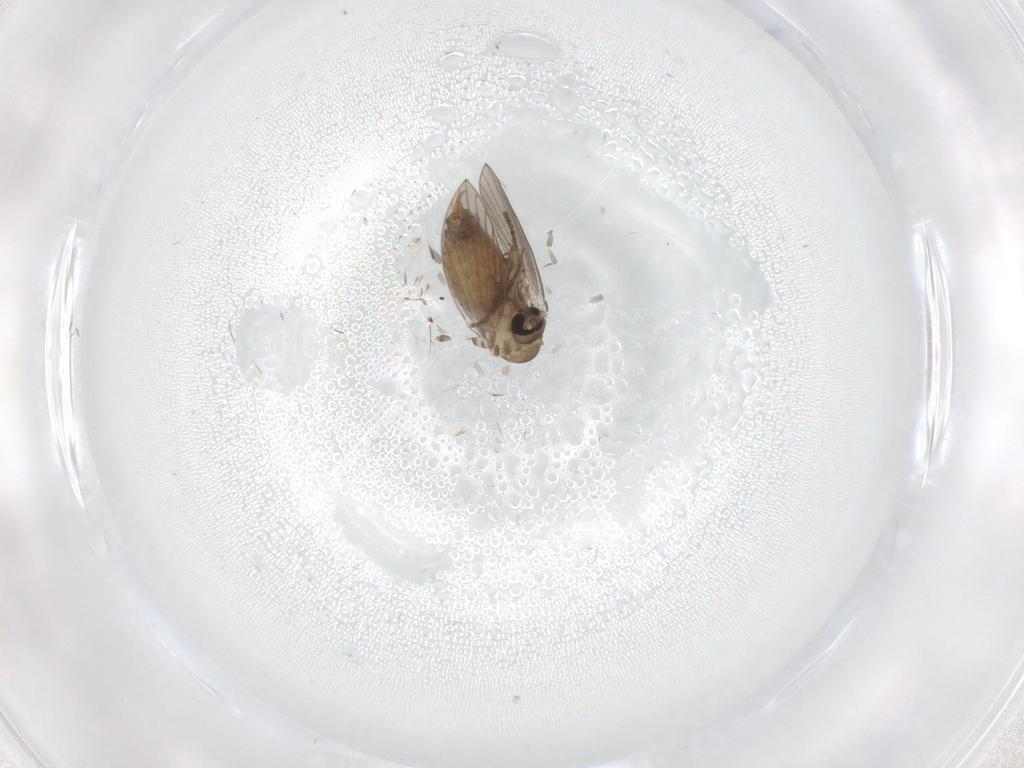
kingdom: Animalia
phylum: Arthropoda
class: Insecta
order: Diptera
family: Ceratopogonidae
